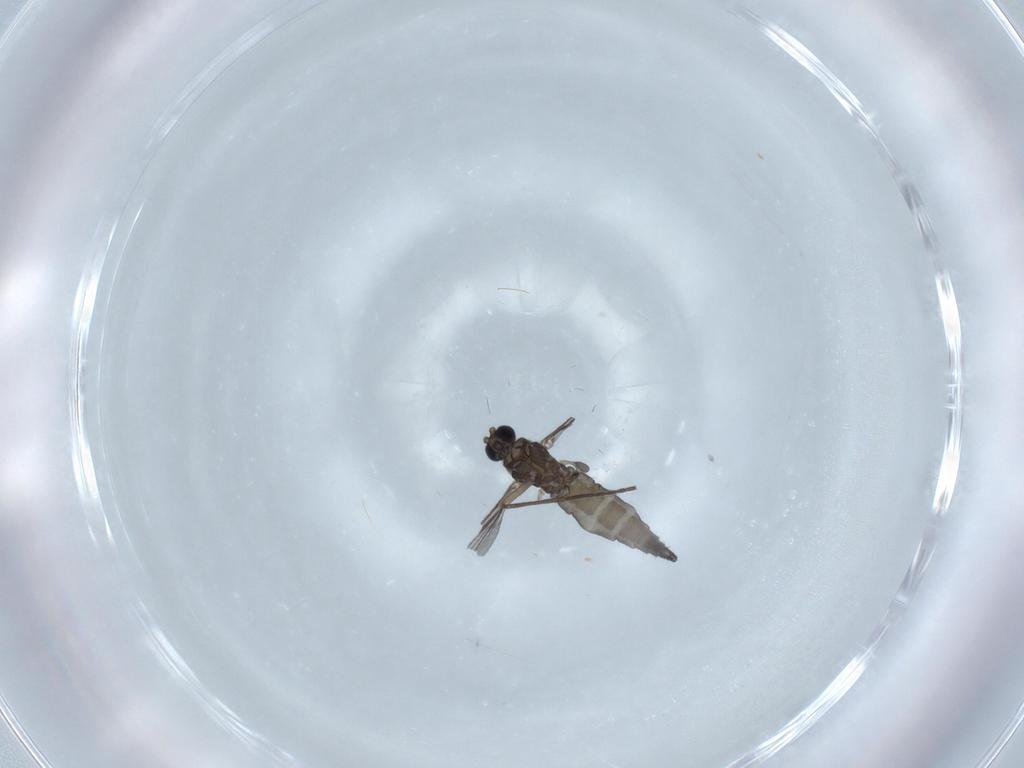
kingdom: Animalia
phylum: Arthropoda
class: Insecta
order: Diptera
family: Sciaridae
